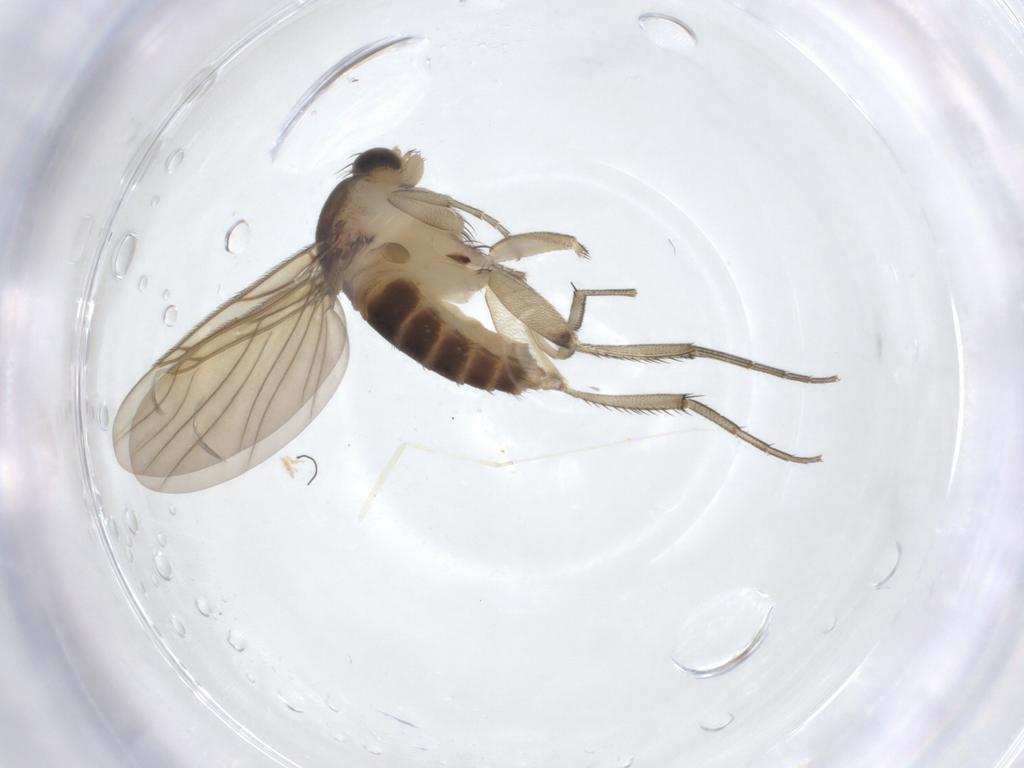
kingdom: Animalia
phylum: Arthropoda
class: Insecta
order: Diptera
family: Phoridae
